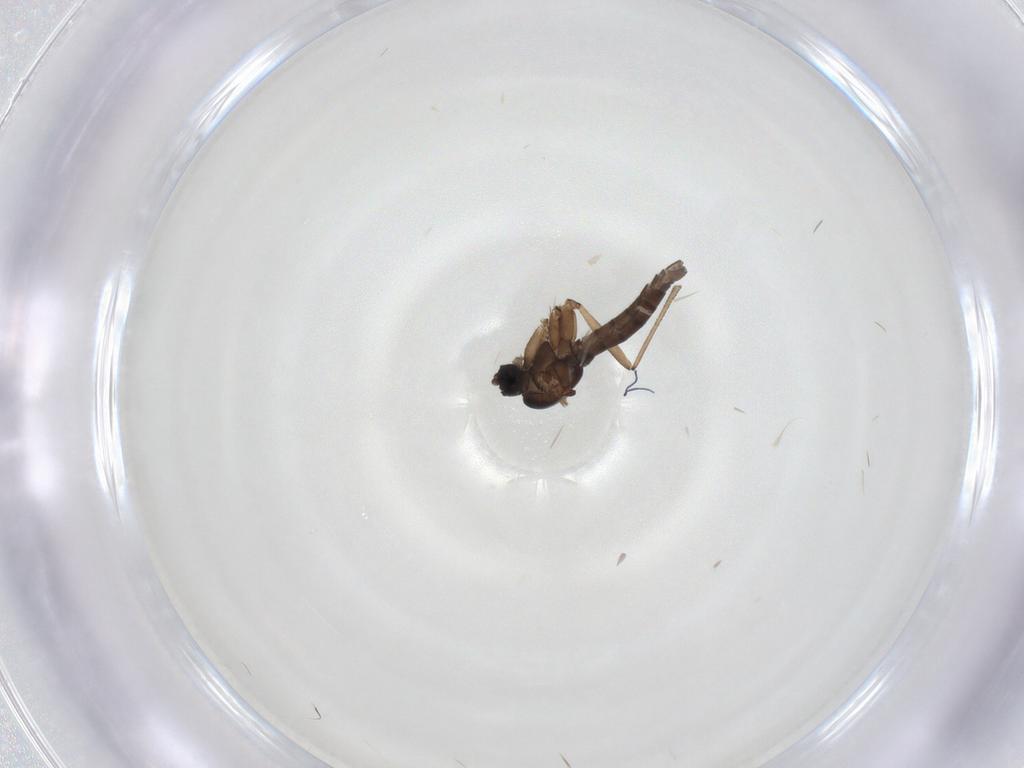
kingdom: Animalia
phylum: Arthropoda
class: Insecta
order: Diptera
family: Sciaridae
